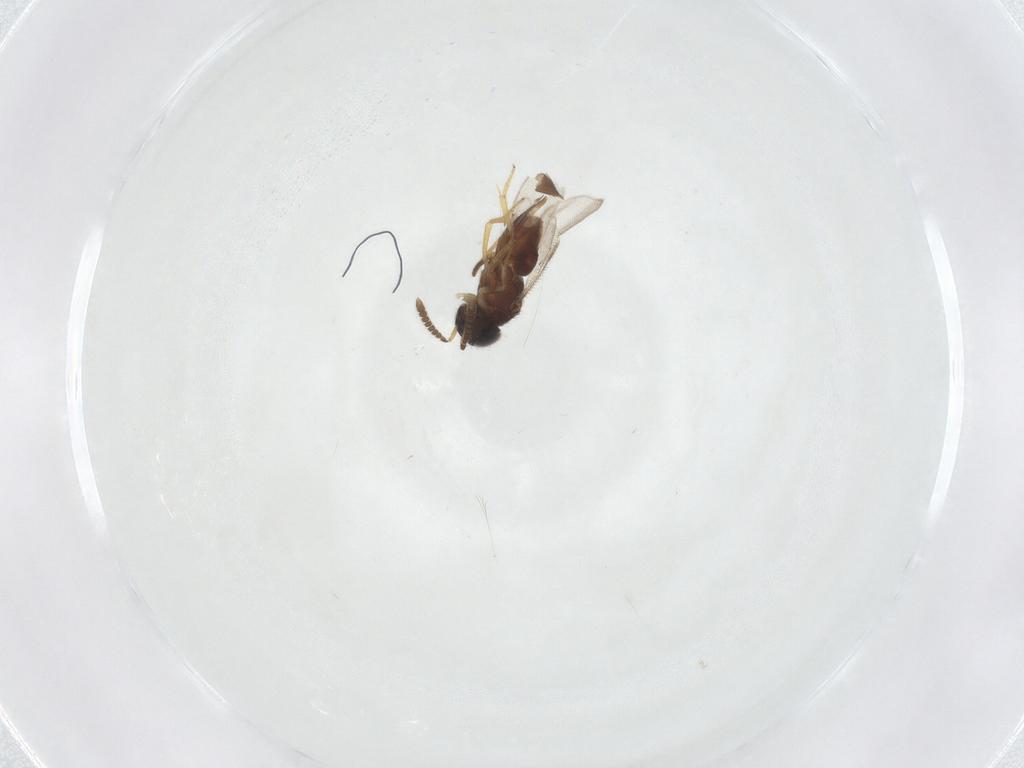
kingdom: Animalia
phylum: Arthropoda
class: Insecta
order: Hymenoptera
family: Encyrtidae
